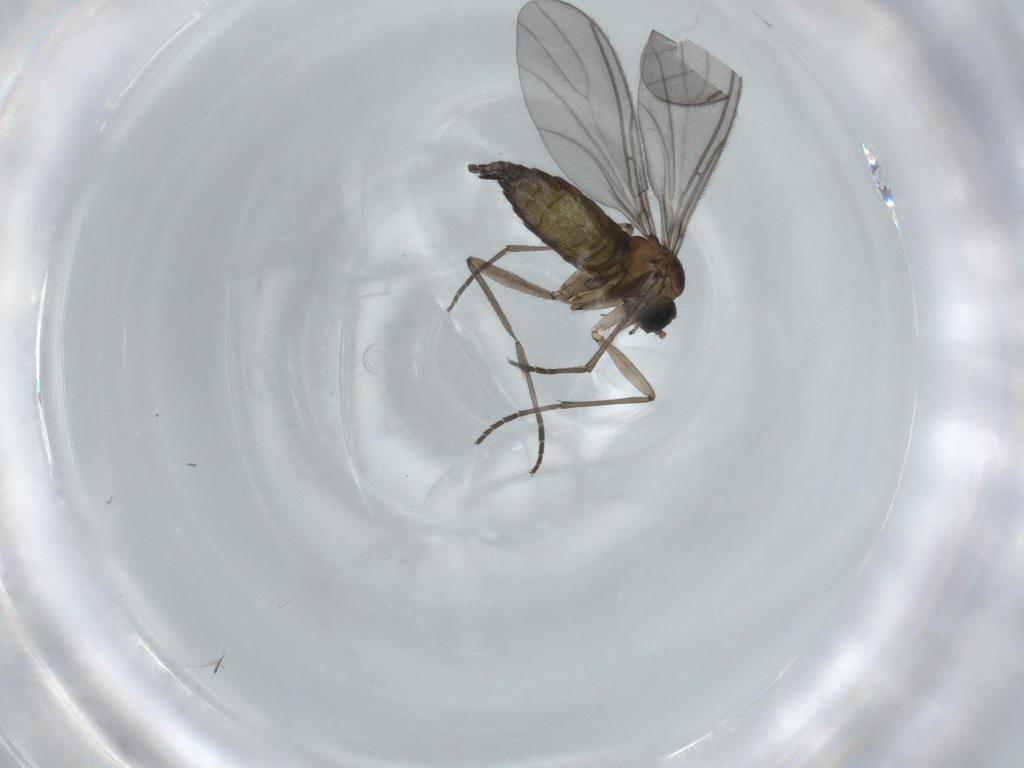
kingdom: Animalia
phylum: Arthropoda
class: Insecta
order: Diptera
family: Sciaridae
